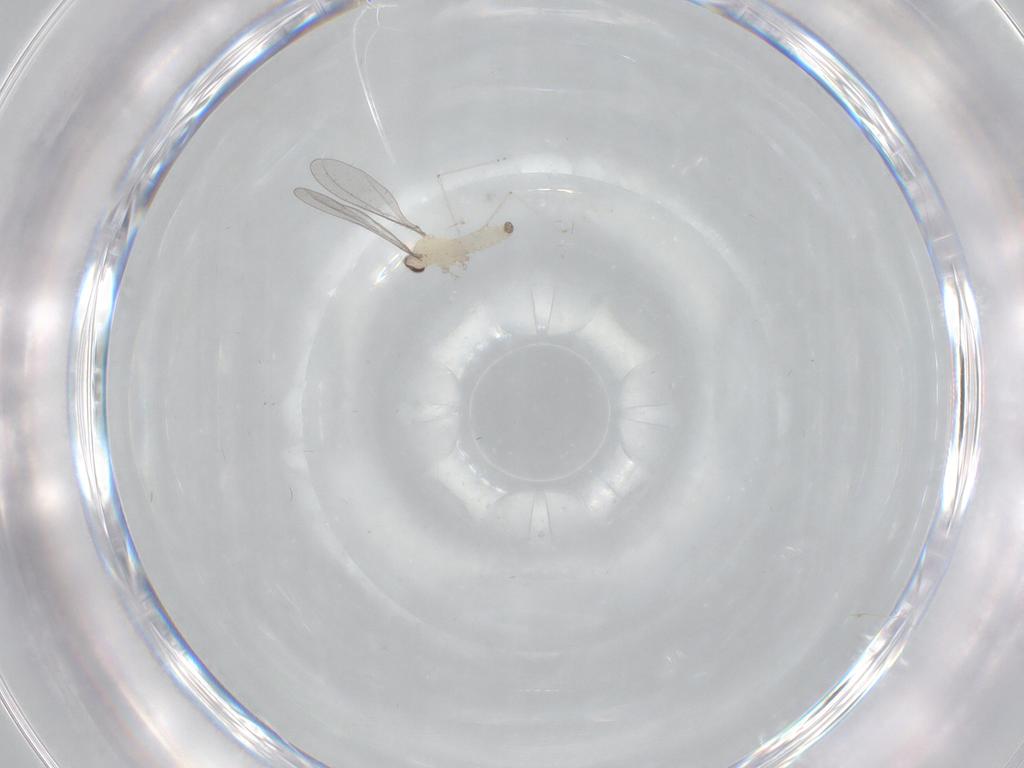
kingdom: Animalia
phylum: Arthropoda
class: Insecta
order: Diptera
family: Cecidomyiidae
